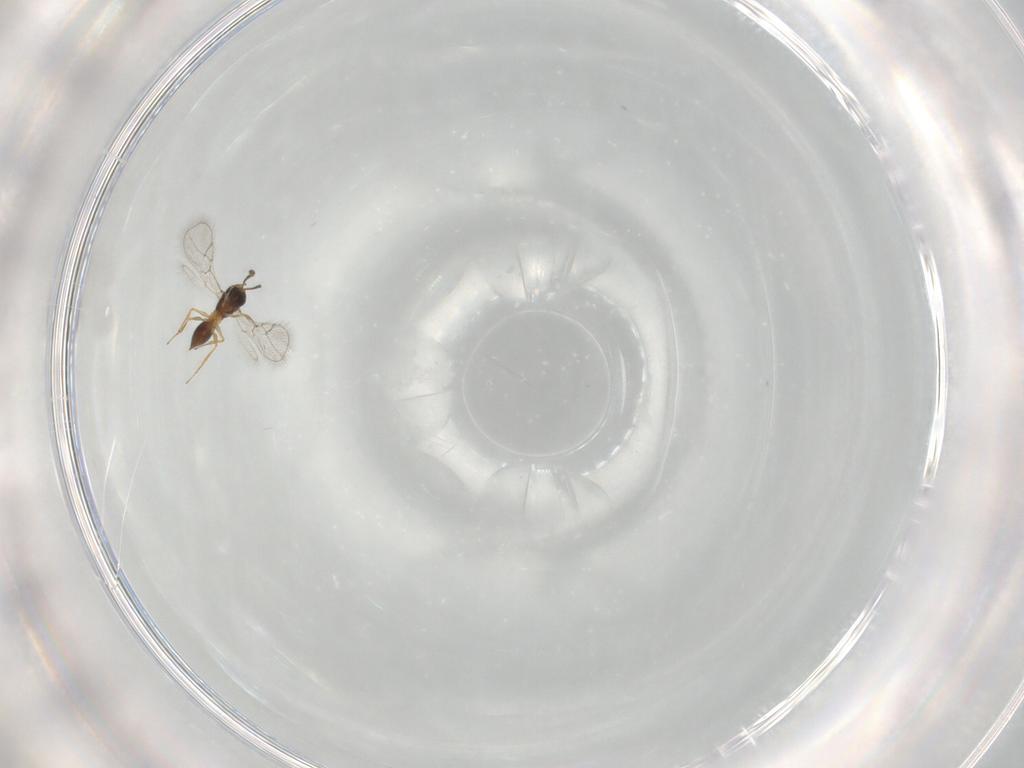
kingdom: Animalia
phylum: Arthropoda
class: Insecta
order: Hymenoptera
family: Figitidae
